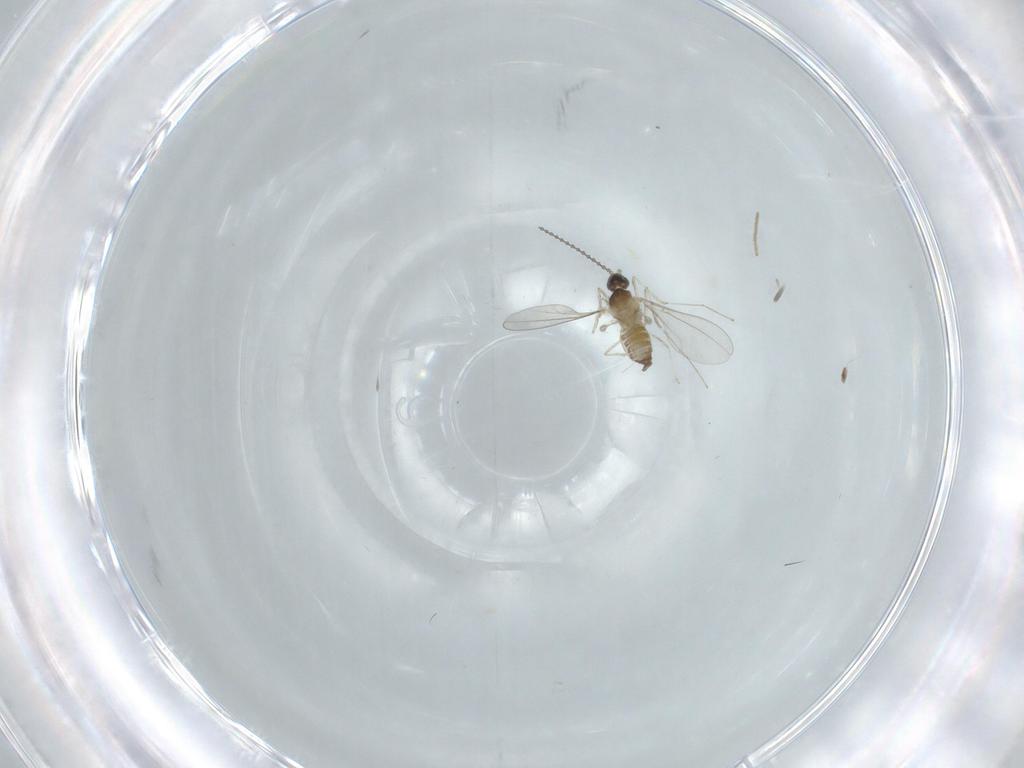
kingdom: Animalia
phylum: Arthropoda
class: Insecta
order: Diptera
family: Cecidomyiidae
